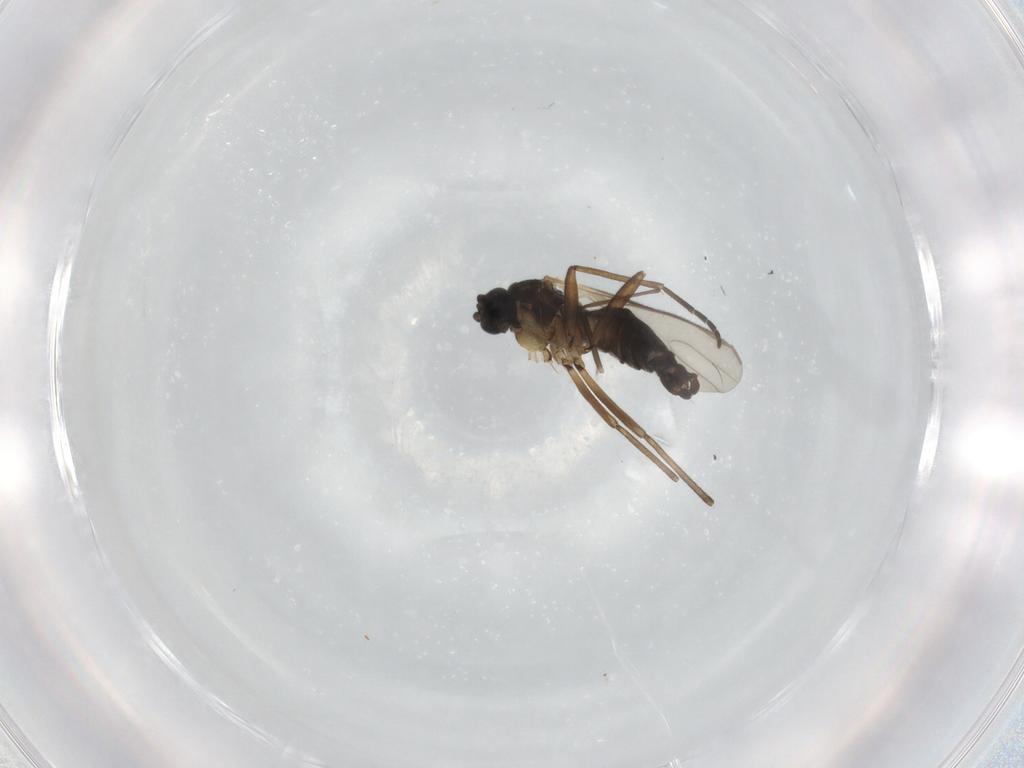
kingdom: Animalia
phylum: Arthropoda
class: Insecta
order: Diptera
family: Sciaridae
